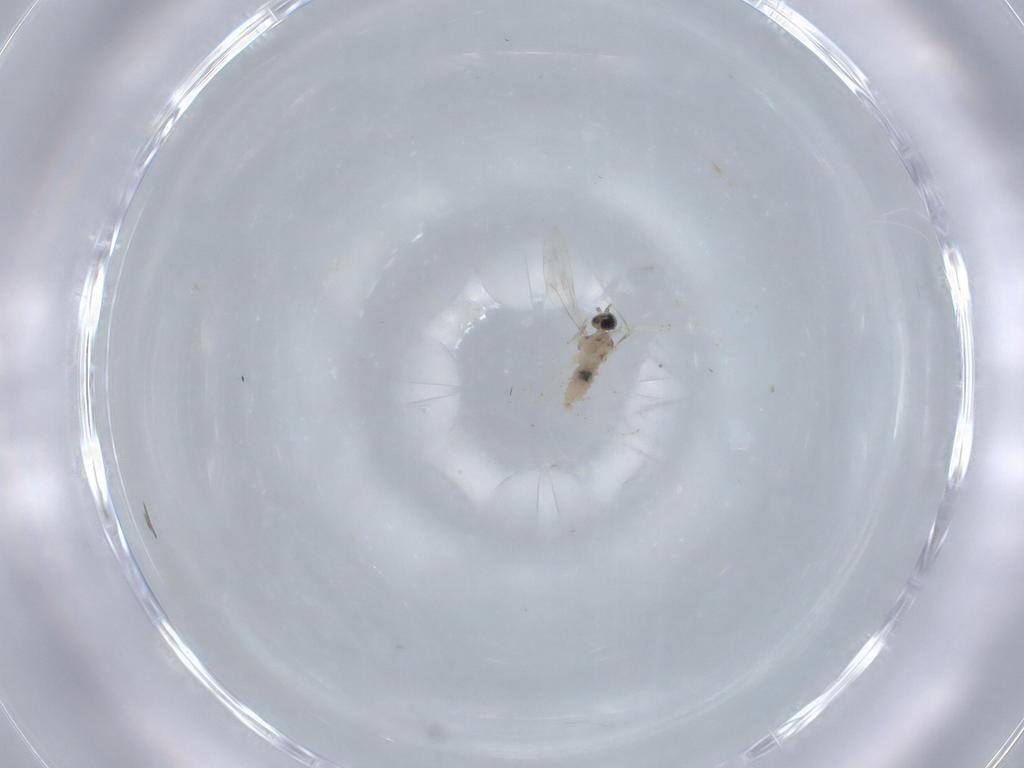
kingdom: Animalia
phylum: Arthropoda
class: Insecta
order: Diptera
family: Cecidomyiidae
